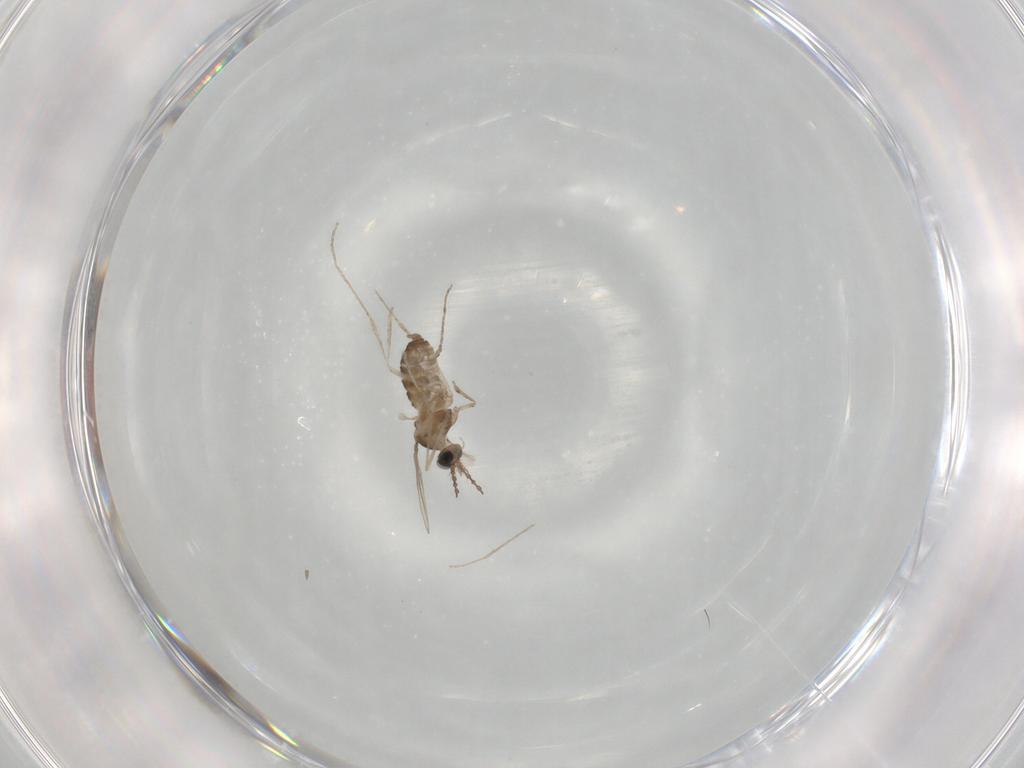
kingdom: Animalia
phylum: Arthropoda
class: Insecta
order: Diptera
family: Cecidomyiidae
